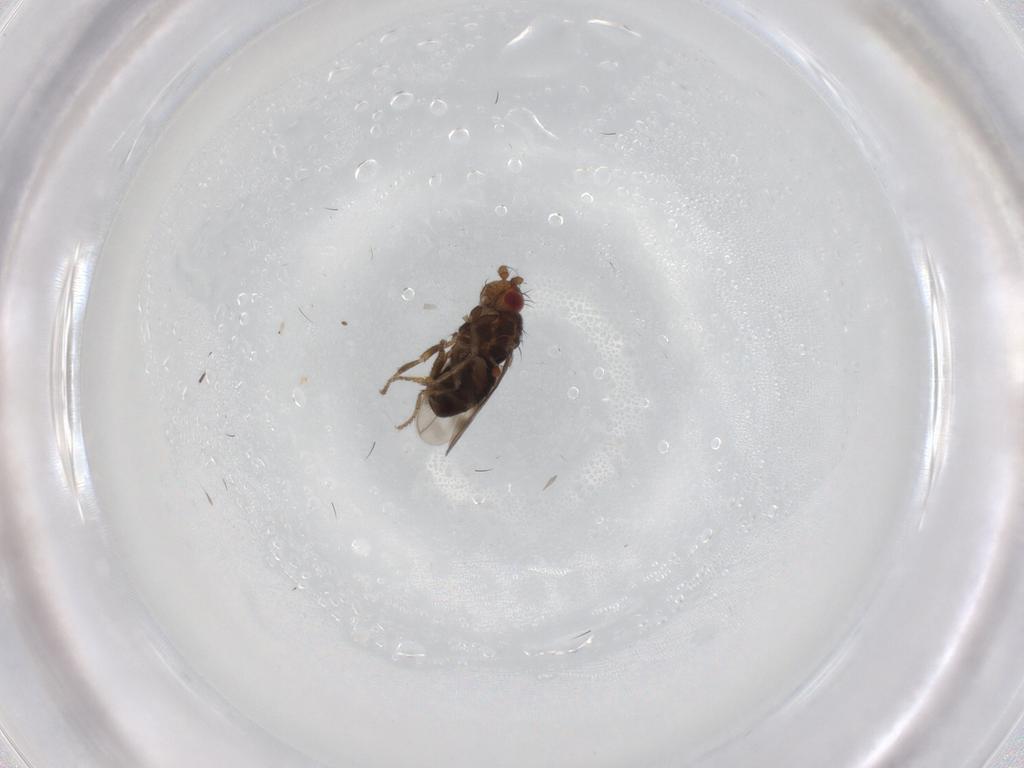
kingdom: Animalia
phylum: Arthropoda
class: Insecta
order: Diptera
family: Sphaeroceridae
